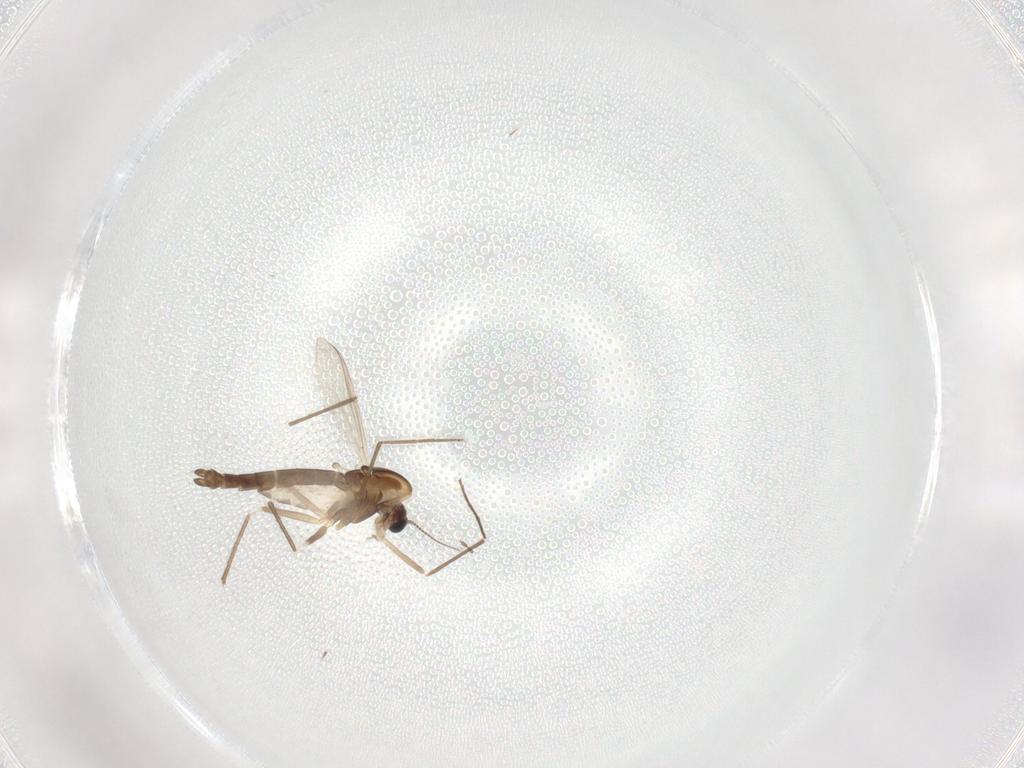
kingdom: Animalia
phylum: Arthropoda
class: Insecta
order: Diptera
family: Chironomidae
